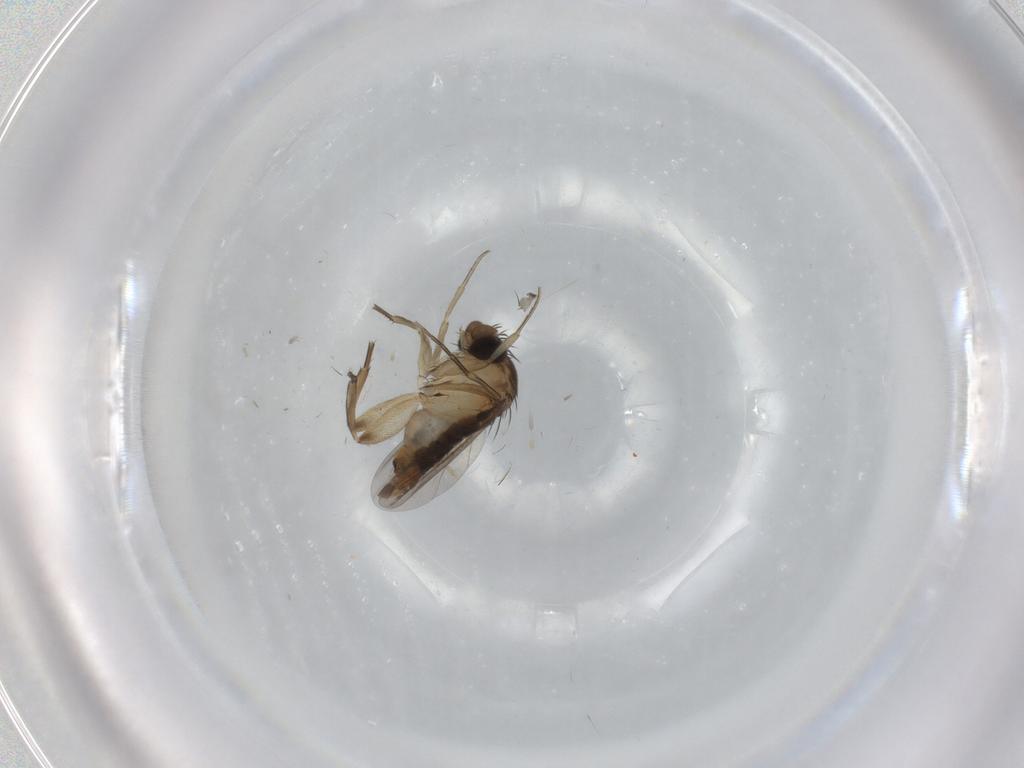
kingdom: Animalia
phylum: Arthropoda
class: Insecta
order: Diptera
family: Phoridae
